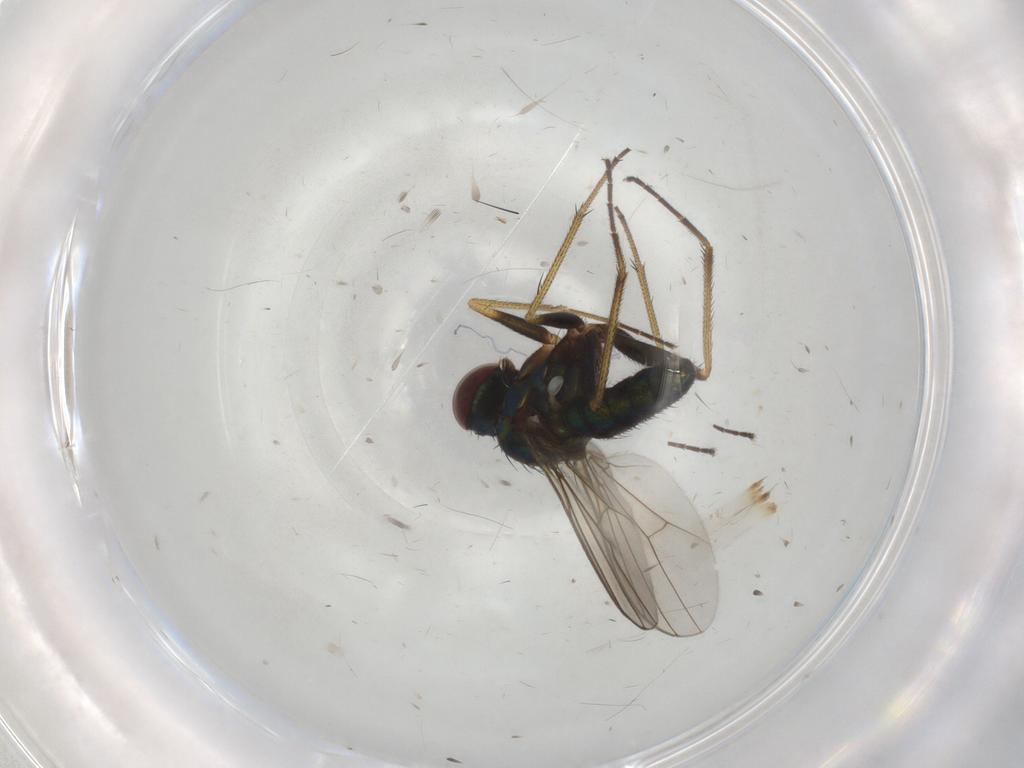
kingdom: Animalia
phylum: Arthropoda
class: Insecta
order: Diptera
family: Dolichopodidae
